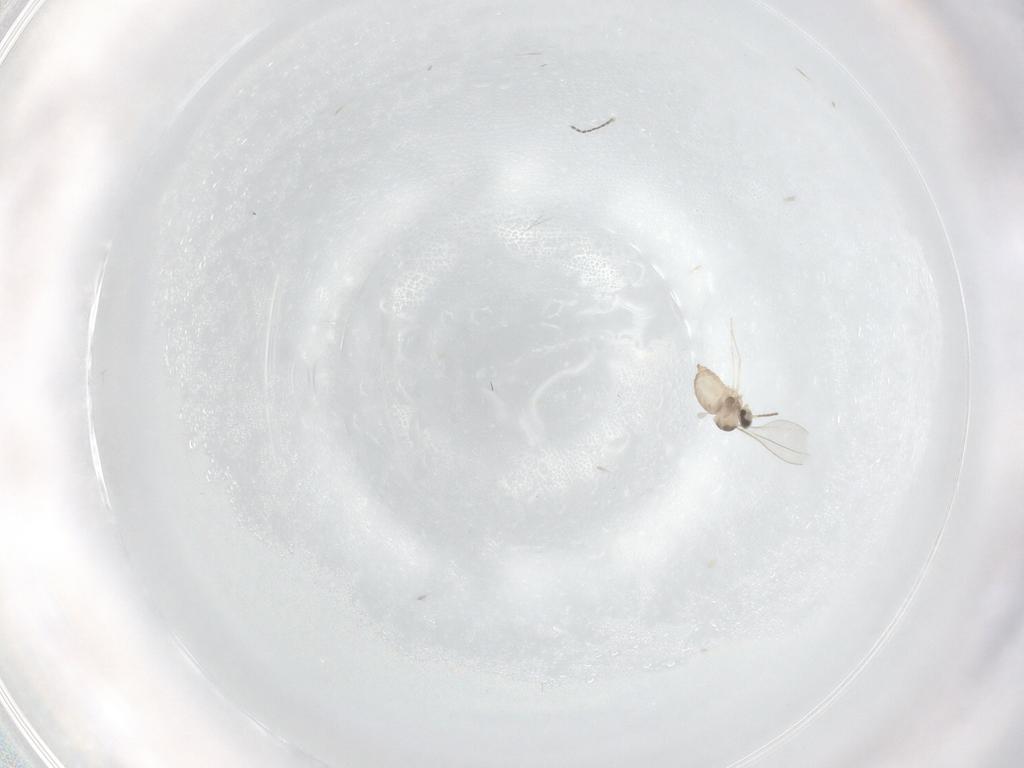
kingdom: Animalia
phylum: Arthropoda
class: Insecta
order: Diptera
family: Cecidomyiidae
